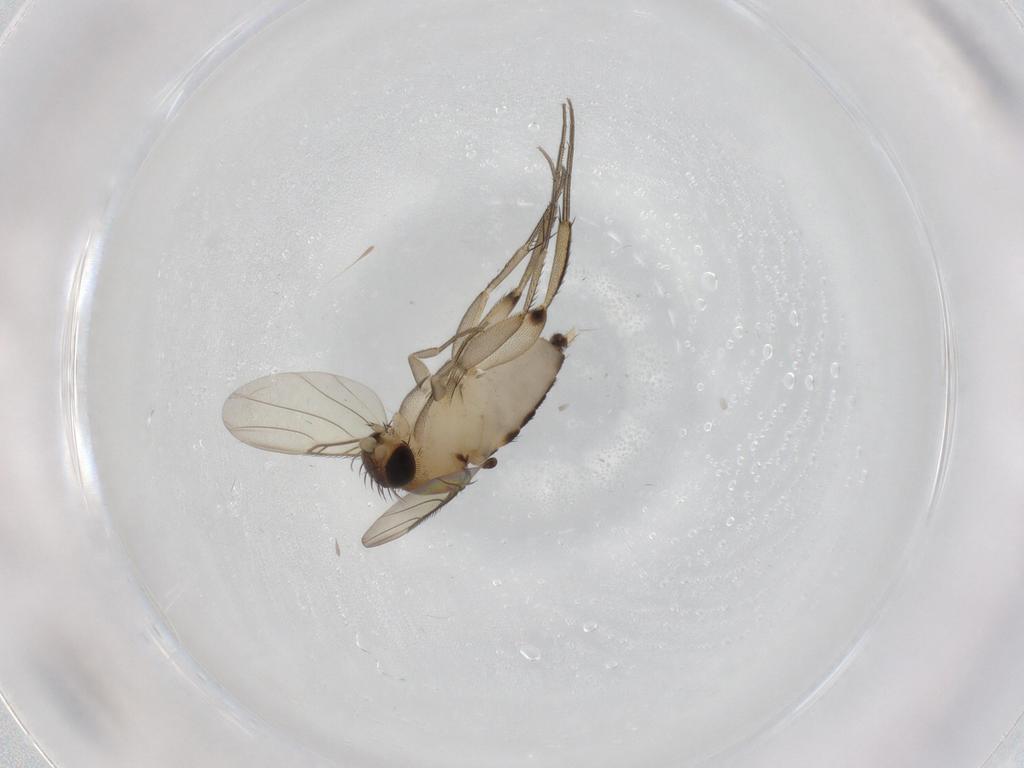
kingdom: Animalia
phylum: Arthropoda
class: Insecta
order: Diptera
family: Phoridae
